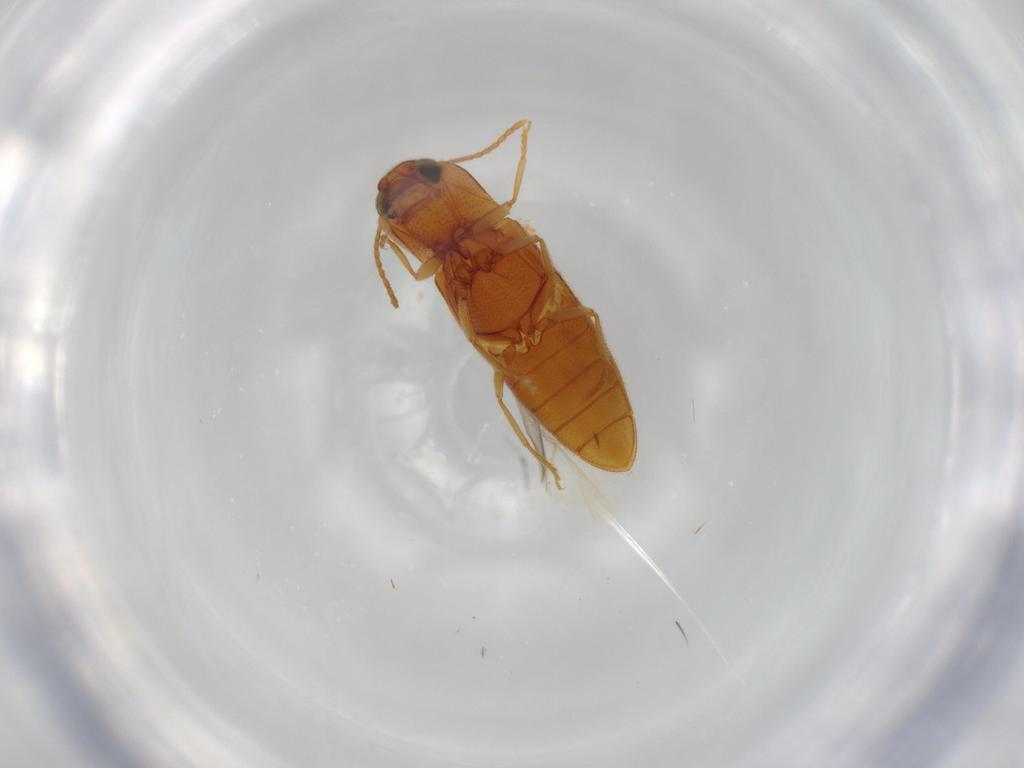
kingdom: Animalia
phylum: Arthropoda
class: Insecta
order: Coleoptera
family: Elateridae
